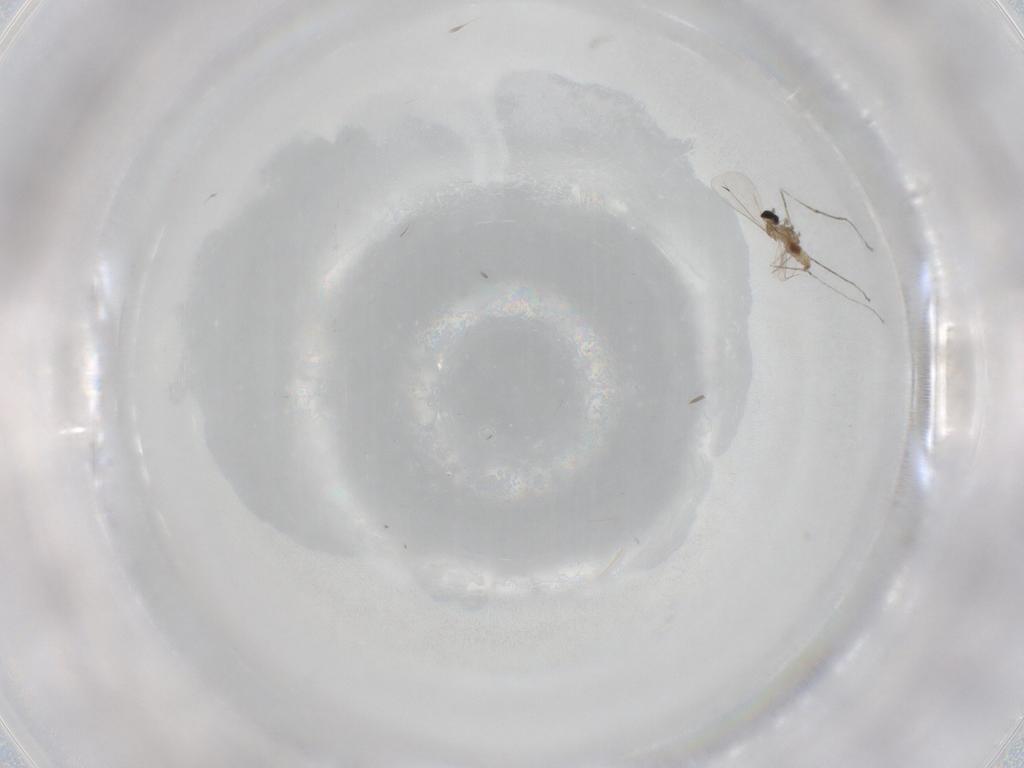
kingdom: Animalia
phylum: Arthropoda
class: Insecta
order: Diptera
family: Cecidomyiidae
